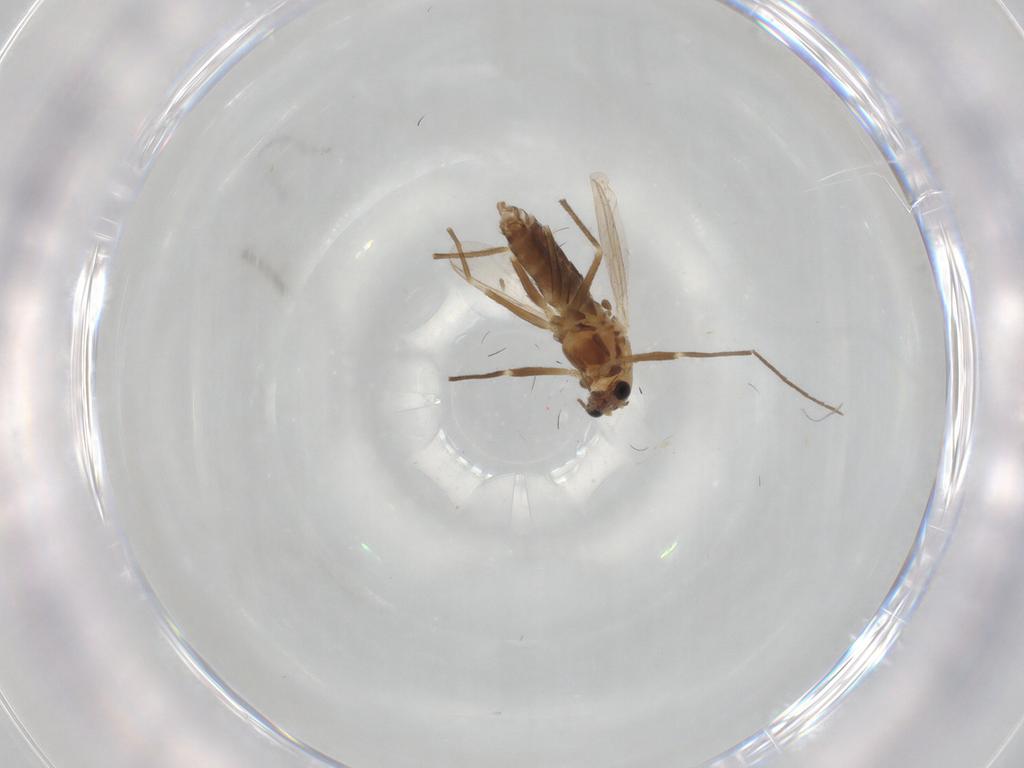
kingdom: Animalia
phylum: Arthropoda
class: Insecta
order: Diptera
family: Chironomidae
